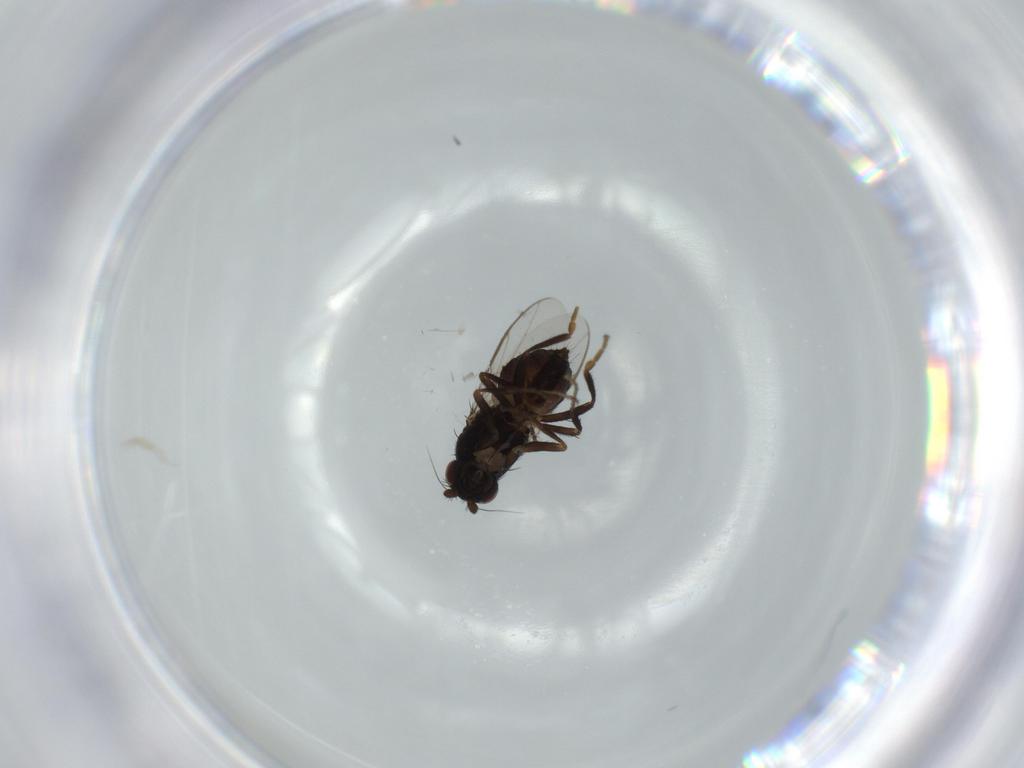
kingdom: Animalia
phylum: Arthropoda
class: Insecta
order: Diptera
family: Sphaeroceridae
